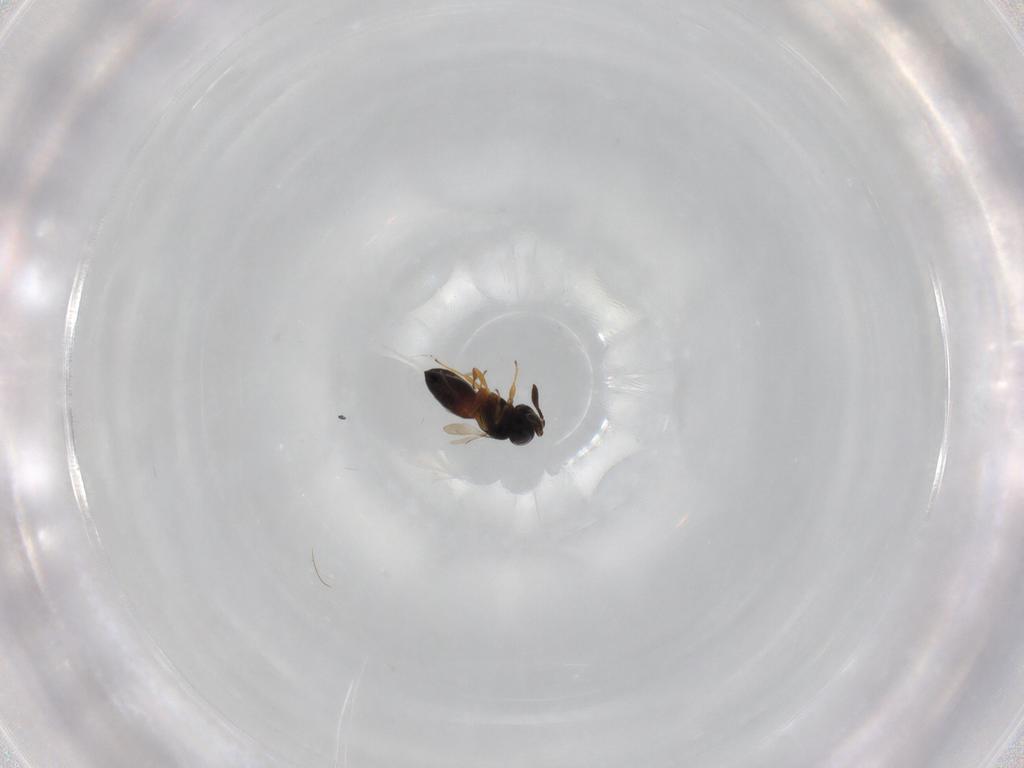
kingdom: Animalia
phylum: Arthropoda
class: Insecta
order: Hymenoptera
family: Scelionidae
